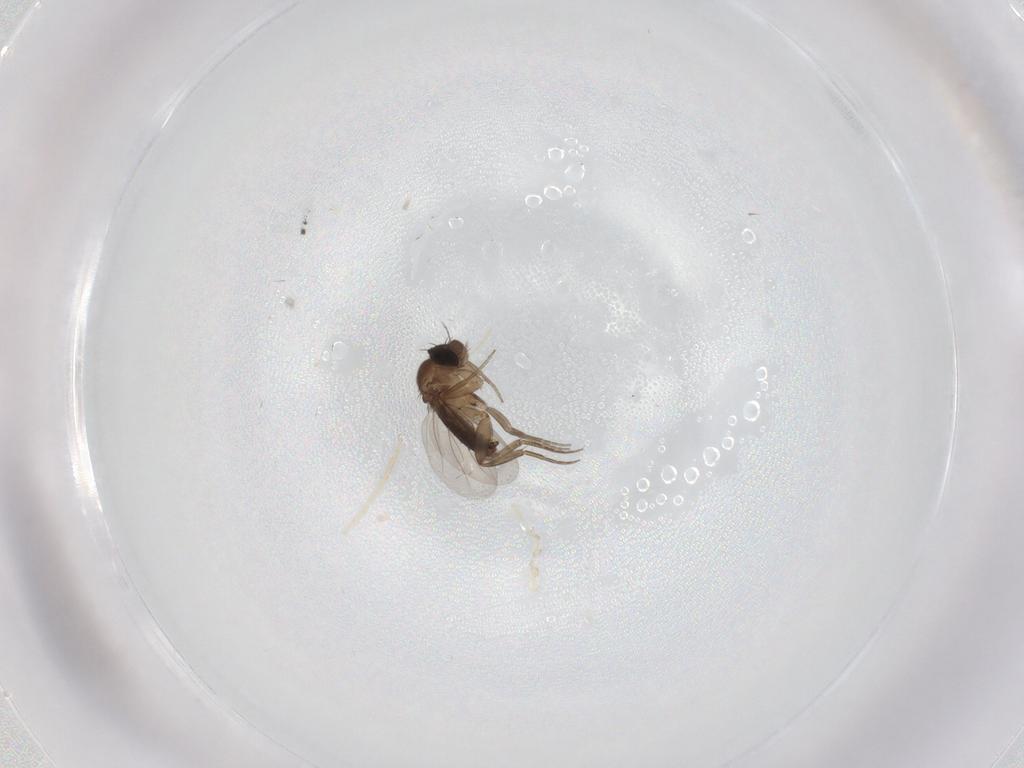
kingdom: Animalia
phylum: Arthropoda
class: Insecta
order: Diptera
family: Phoridae
